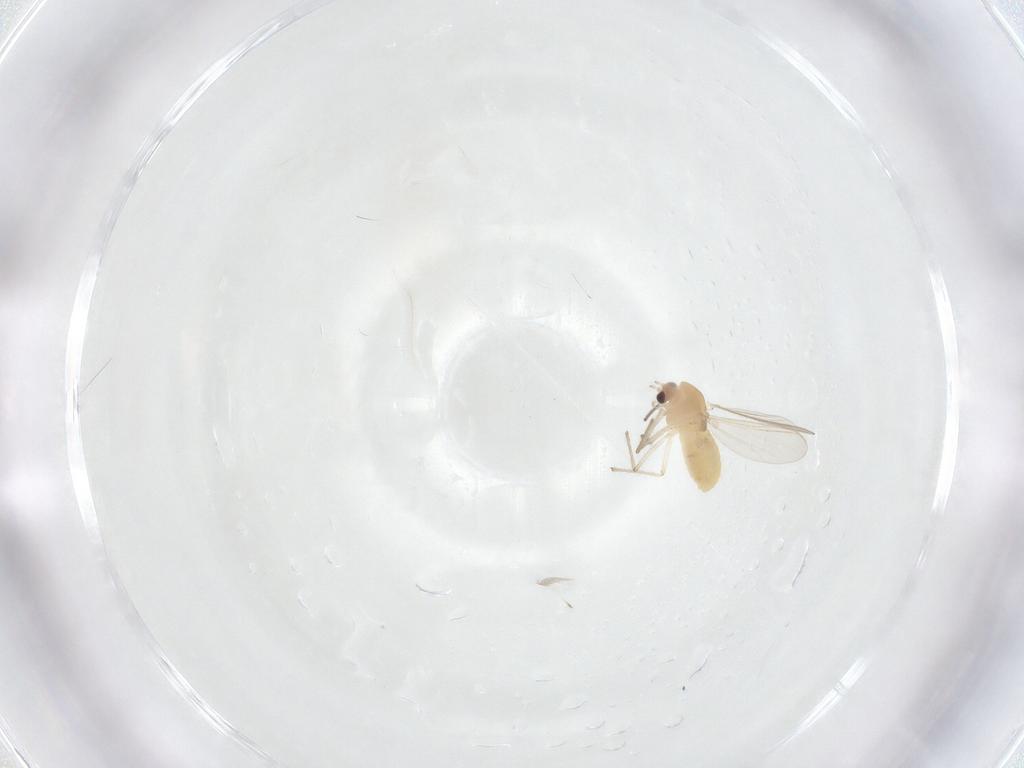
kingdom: Animalia
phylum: Arthropoda
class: Insecta
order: Diptera
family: Chironomidae
